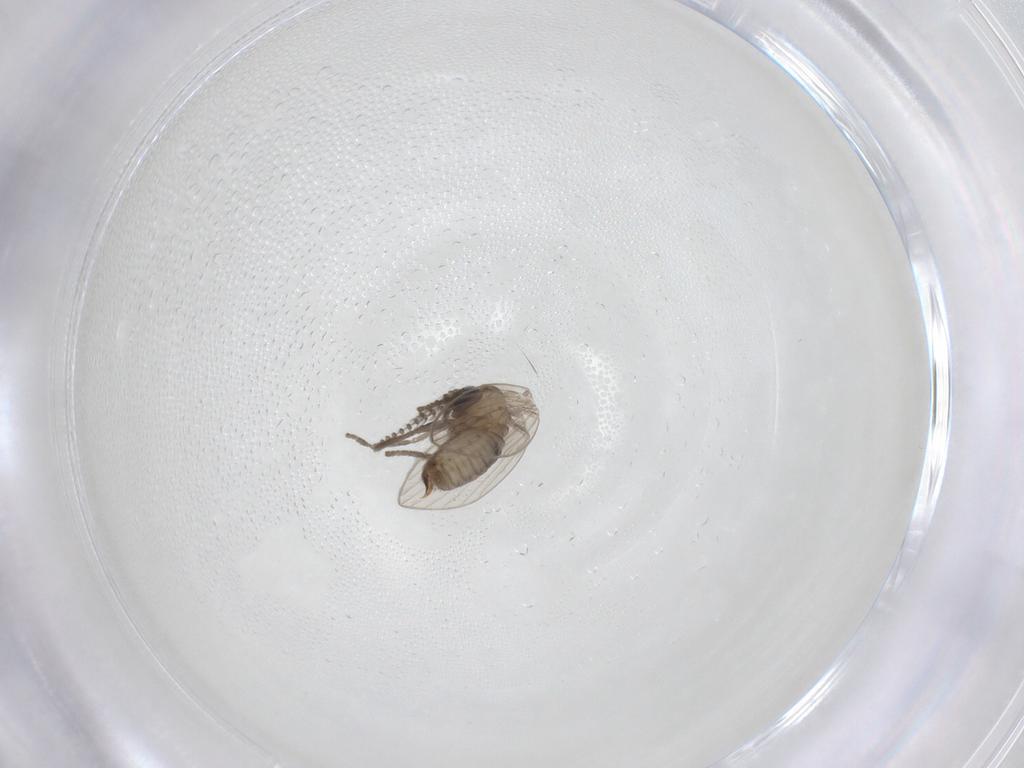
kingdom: Animalia
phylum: Arthropoda
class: Insecta
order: Diptera
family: Psychodidae
